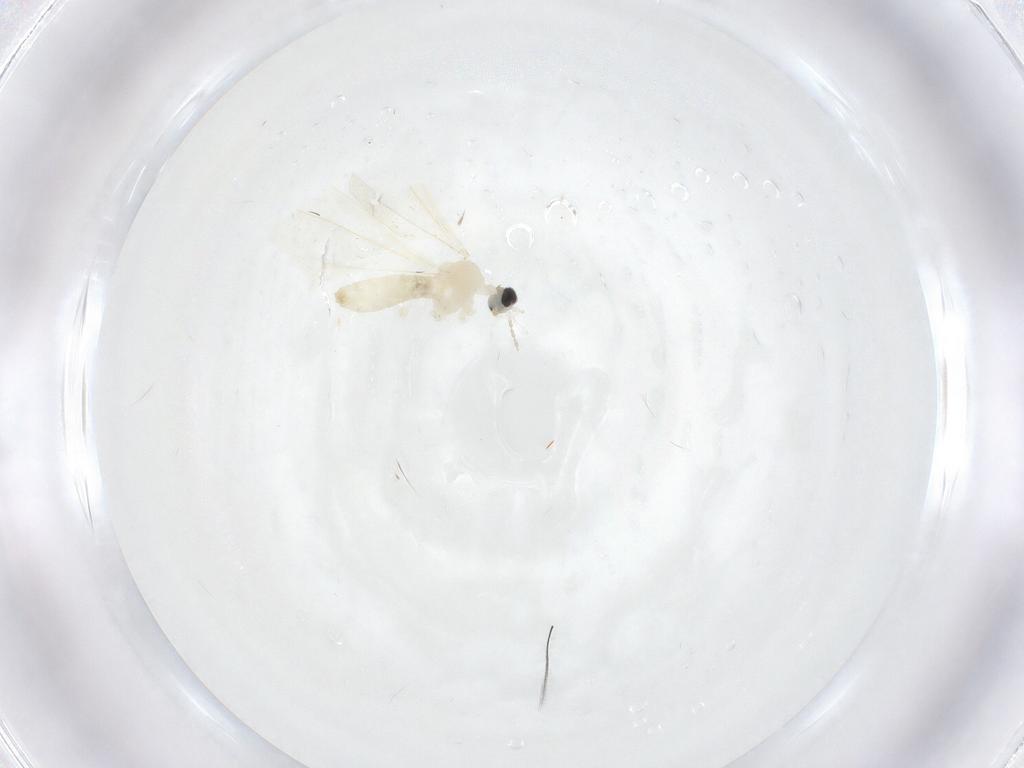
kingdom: Animalia
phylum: Arthropoda
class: Insecta
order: Diptera
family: Cecidomyiidae
